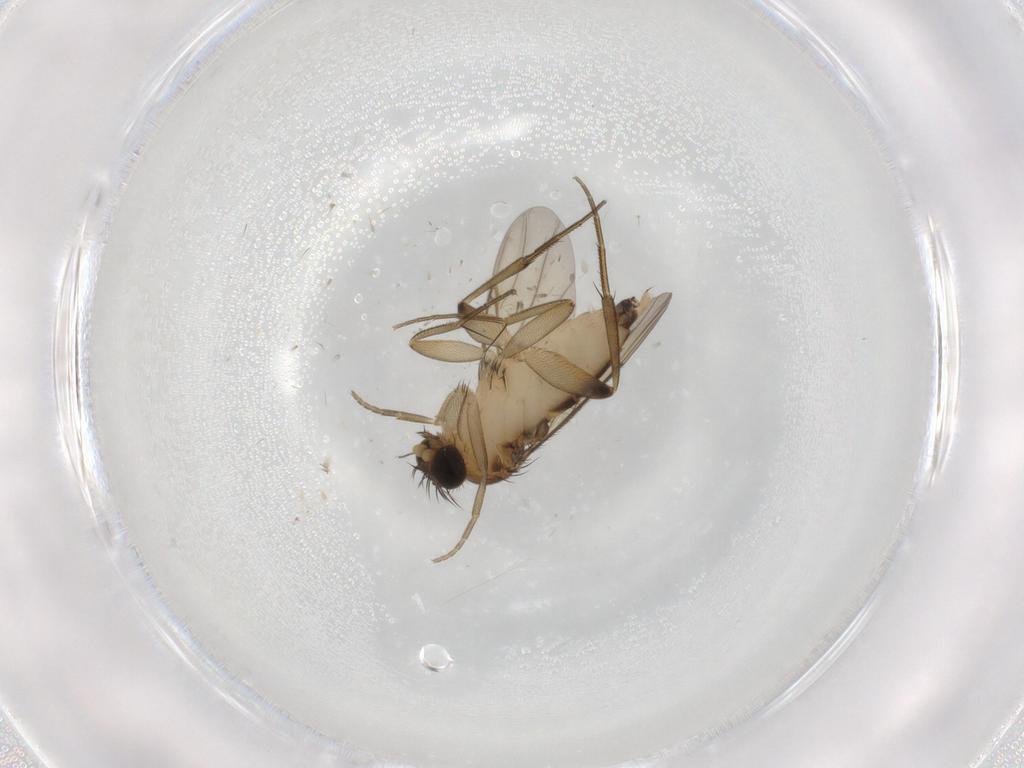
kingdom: Animalia
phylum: Arthropoda
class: Insecta
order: Diptera
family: Phoridae
